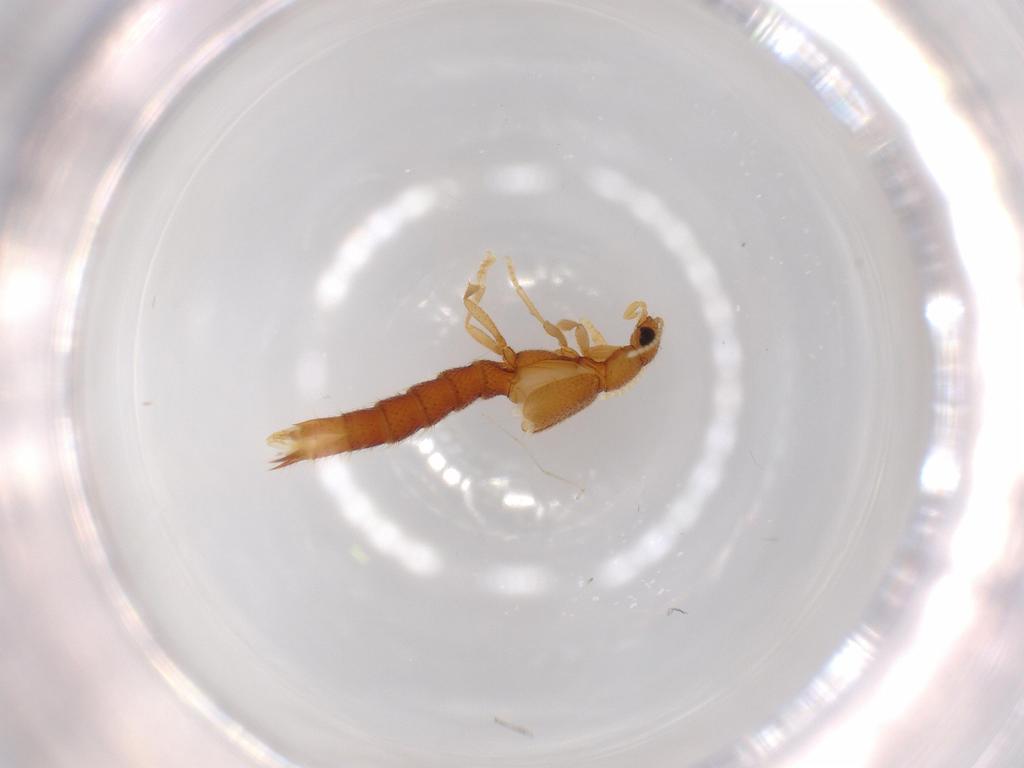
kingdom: Animalia
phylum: Arthropoda
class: Insecta
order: Coleoptera
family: Staphylinidae
